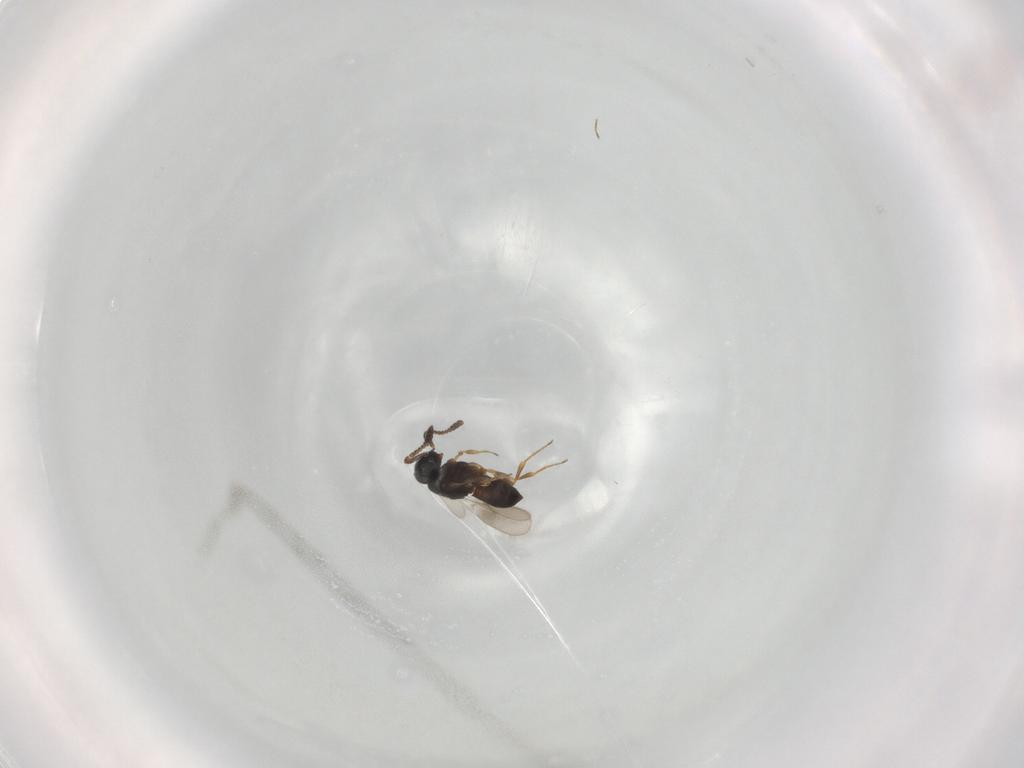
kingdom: Animalia
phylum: Arthropoda
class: Insecta
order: Hymenoptera
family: Scelionidae
